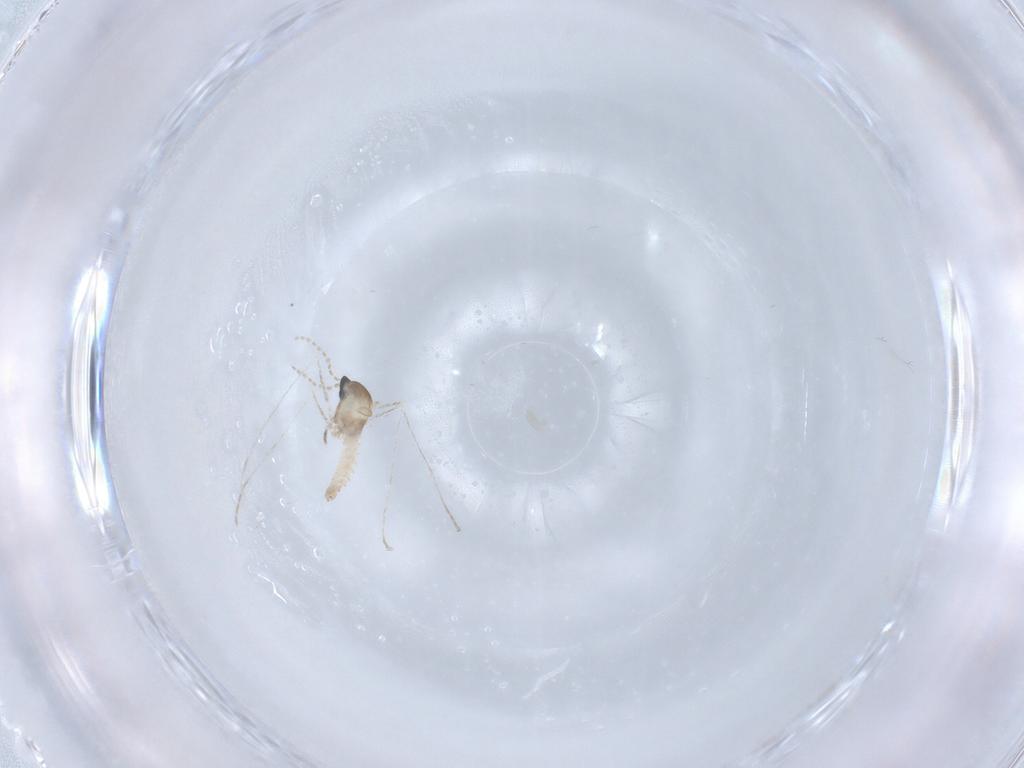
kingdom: Animalia
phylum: Arthropoda
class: Insecta
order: Diptera
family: Cecidomyiidae
